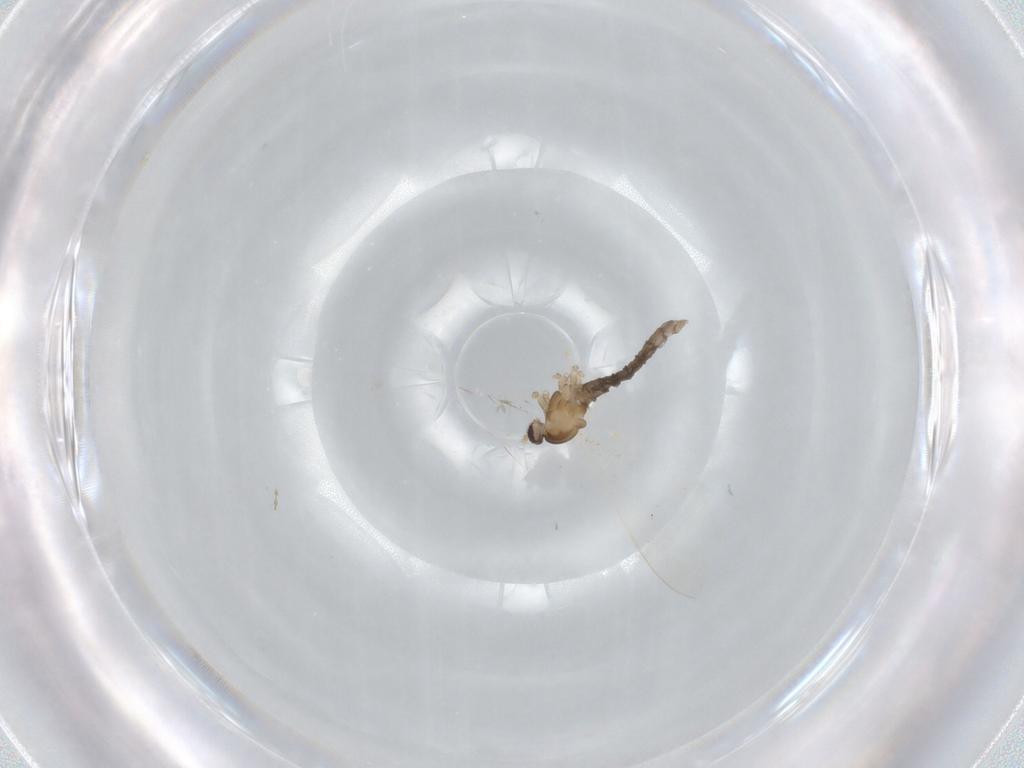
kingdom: Animalia
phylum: Arthropoda
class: Insecta
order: Diptera
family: Cecidomyiidae
